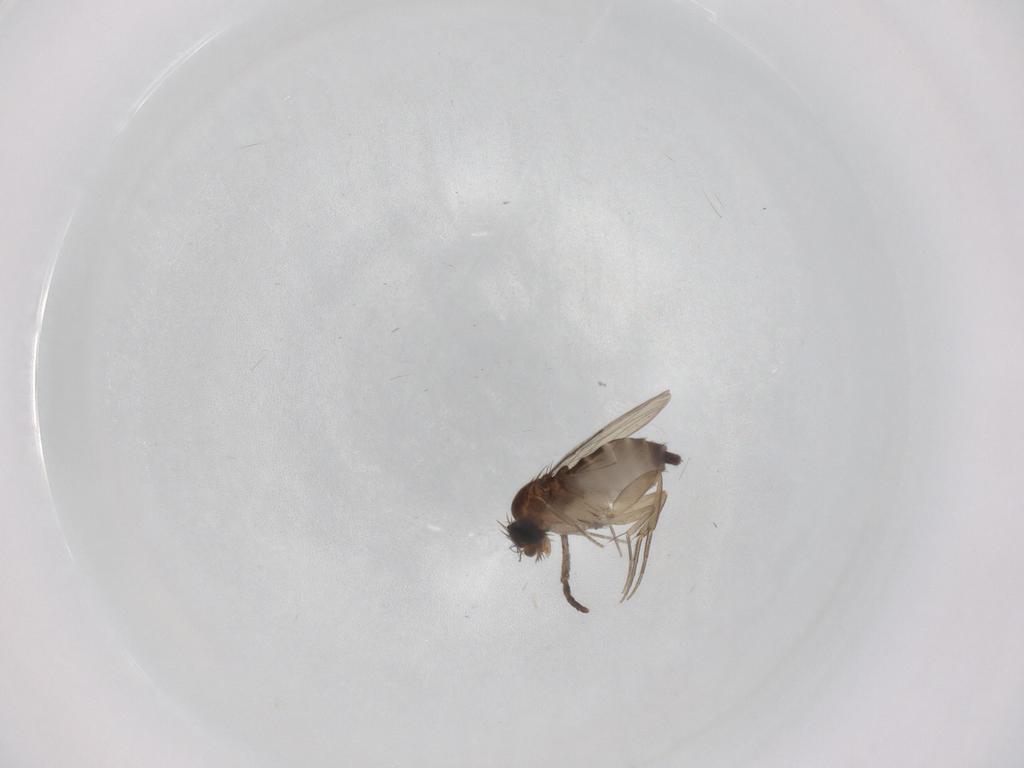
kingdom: Animalia
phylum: Arthropoda
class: Insecta
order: Diptera
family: Phoridae
